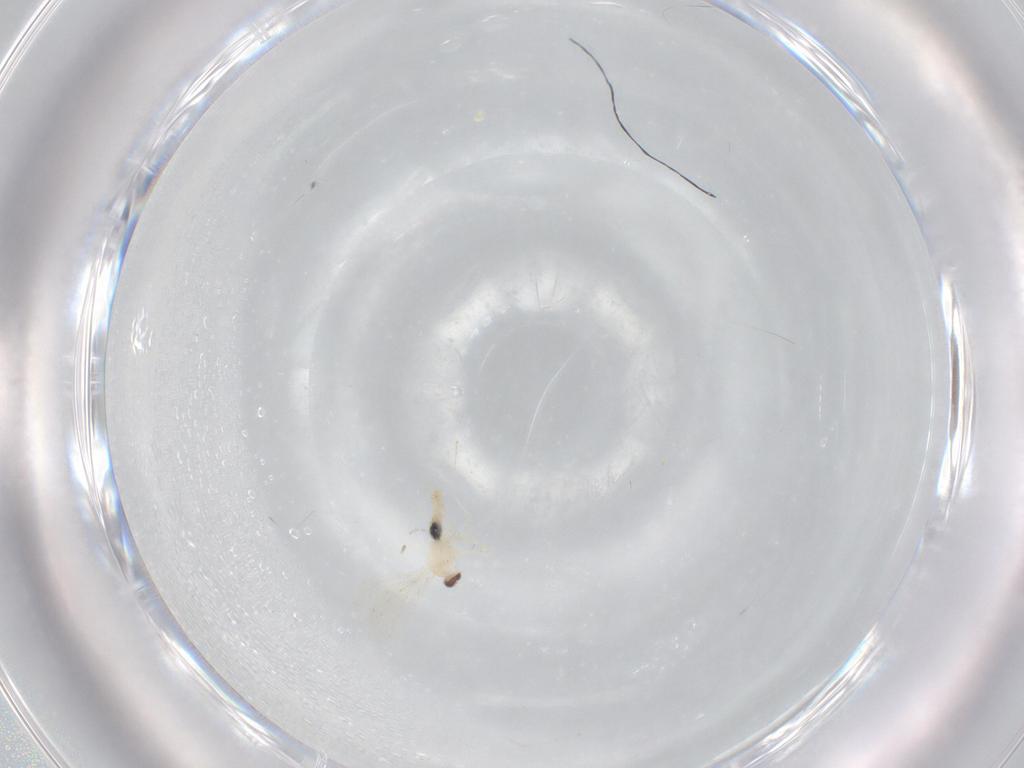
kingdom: Animalia
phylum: Arthropoda
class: Insecta
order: Diptera
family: Cecidomyiidae
